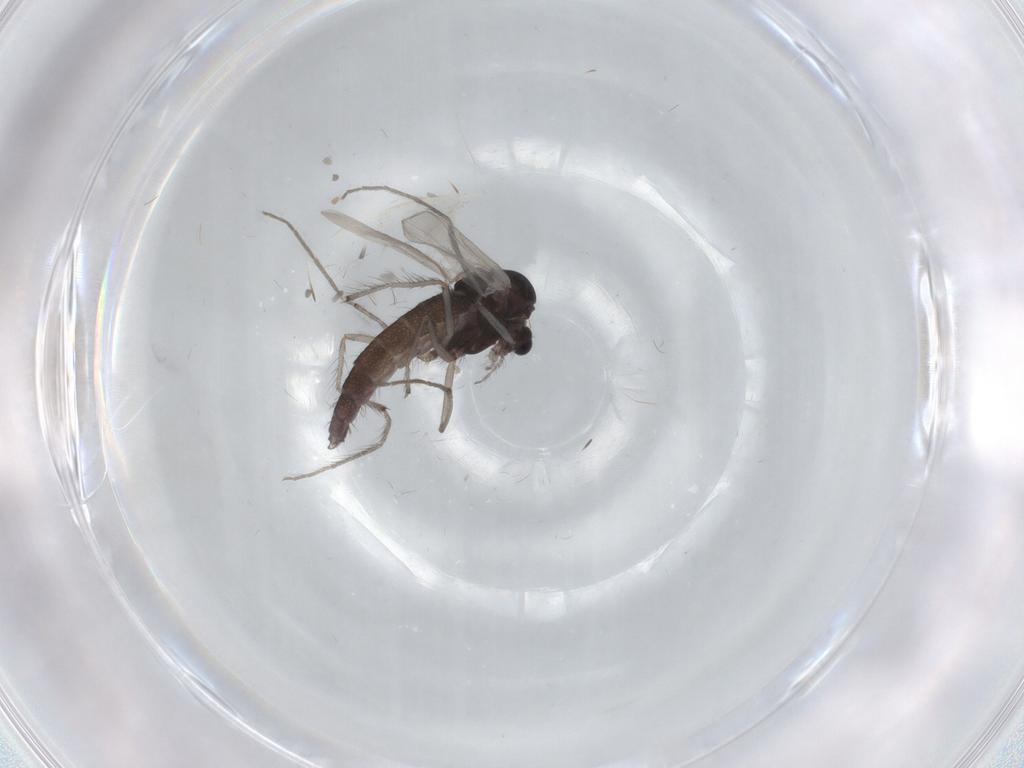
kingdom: Animalia
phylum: Arthropoda
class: Insecta
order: Diptera
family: Chironomidae
